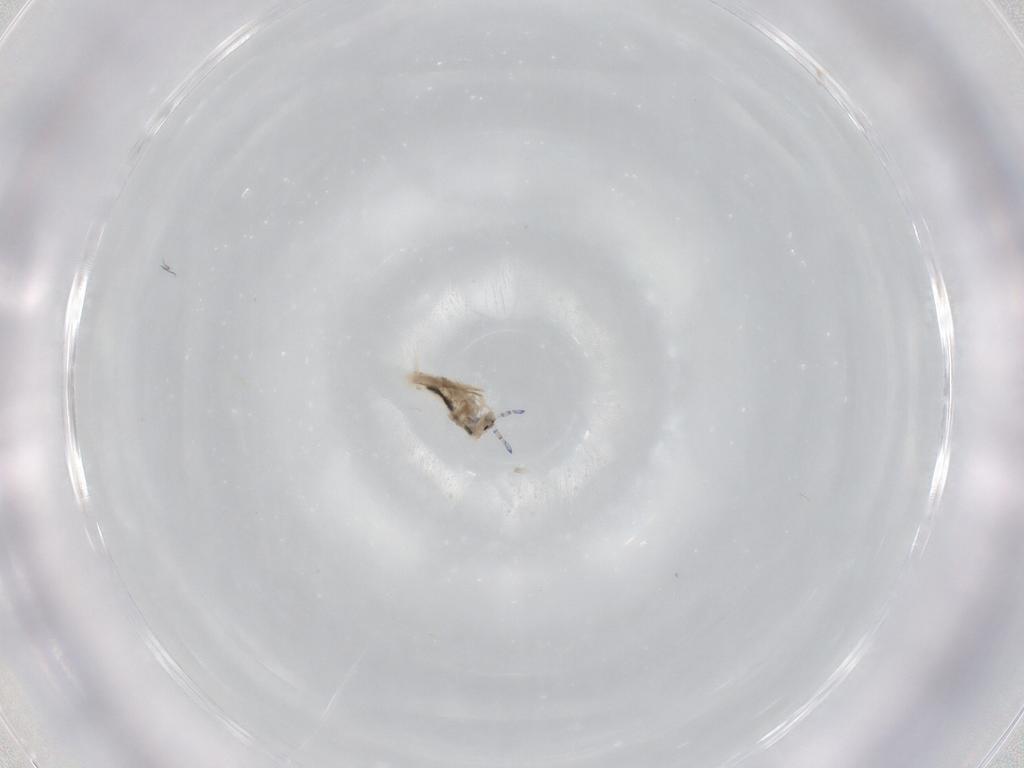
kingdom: Animalia
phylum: Arthropoda
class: Collembola
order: Entomobryomorpha
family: Entomobryidae
